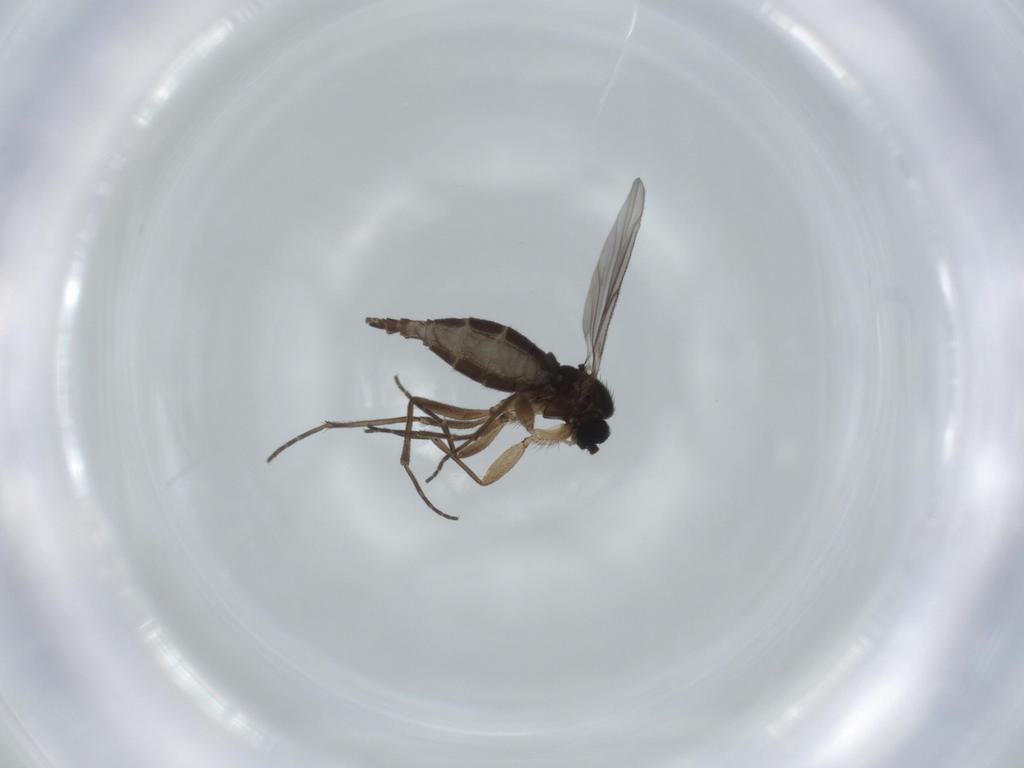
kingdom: Animalia
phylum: Arthropoda
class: Insecta
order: Diptera
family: Sciaridae
